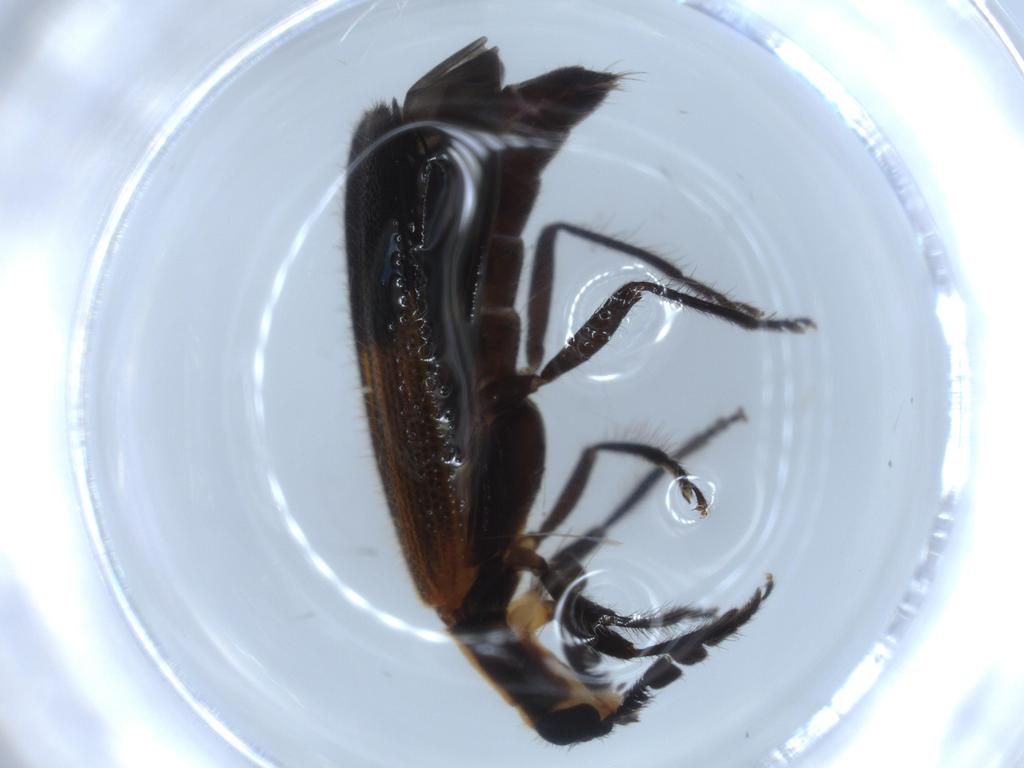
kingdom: Animalia
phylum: Arthropoda
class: Insecta
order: Coleoptera
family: Cleridae
